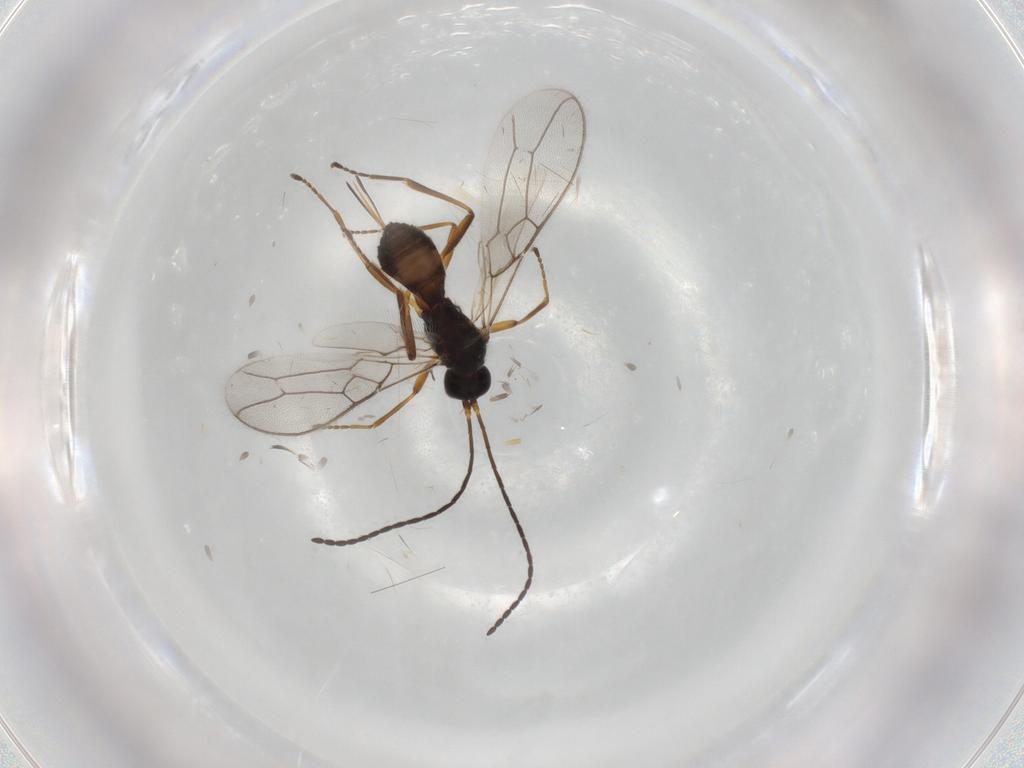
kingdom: Animalia
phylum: Arthropoda
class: Insecta
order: Hymenoptera
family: Braconidae
